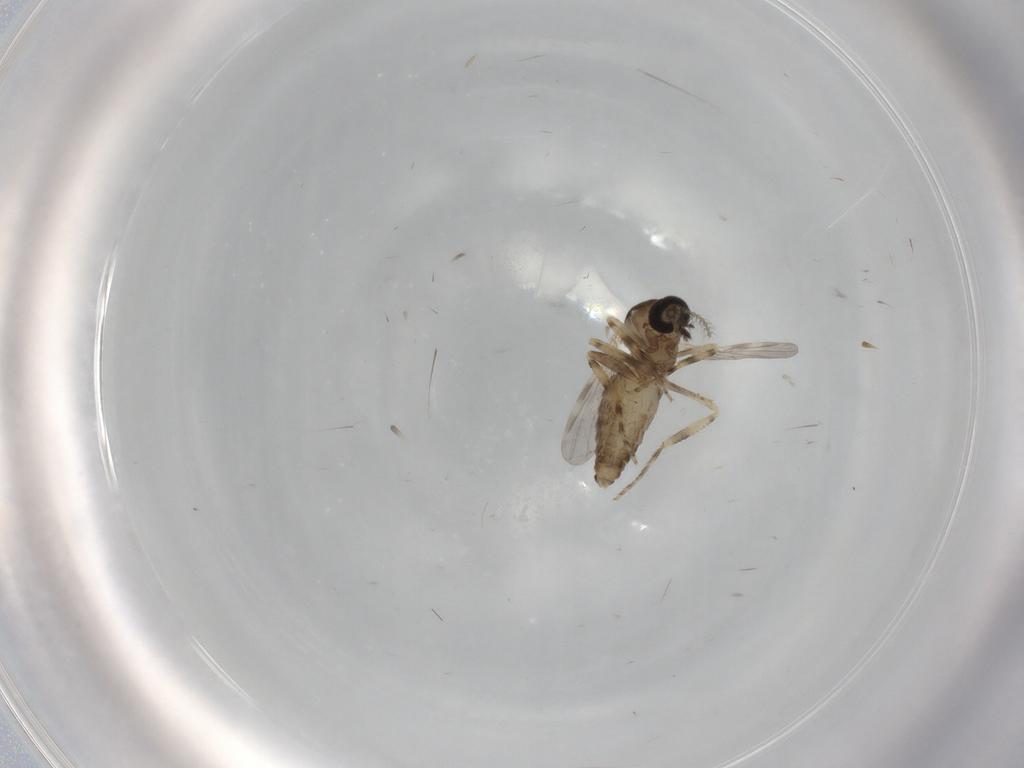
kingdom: Animalia
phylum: Arthropoda
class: Insecta
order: Diptera
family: Ceratopogonidae
